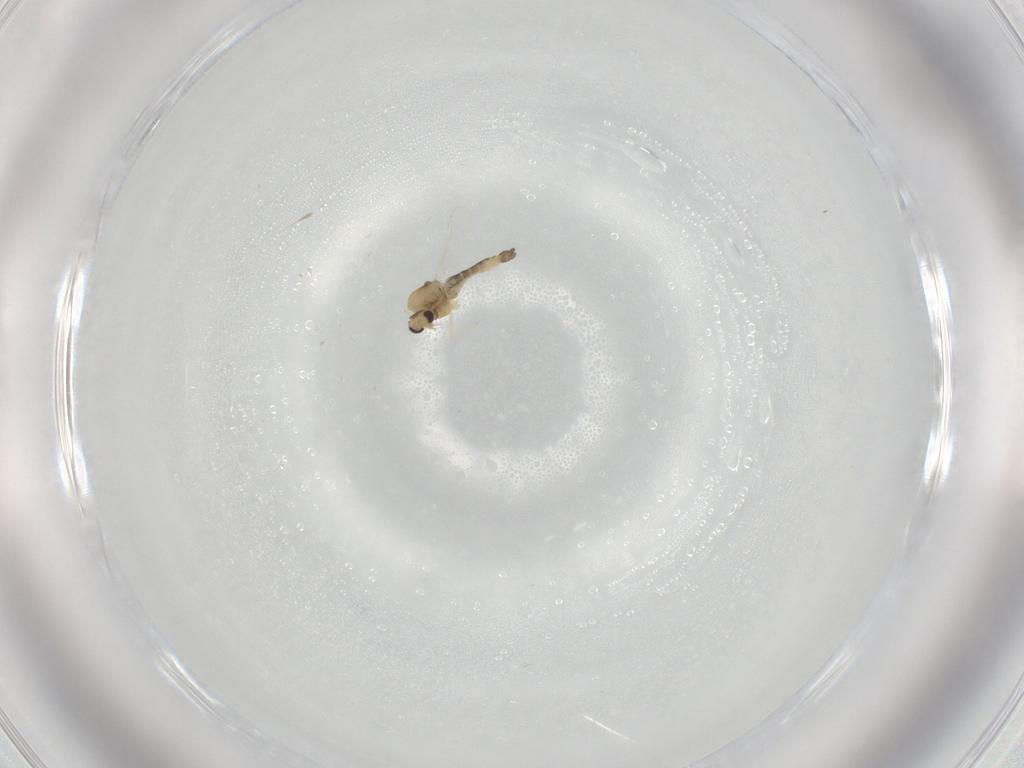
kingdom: Animalia
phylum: Arthropoda
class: Insecta
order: Diptera
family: Chironomidae
